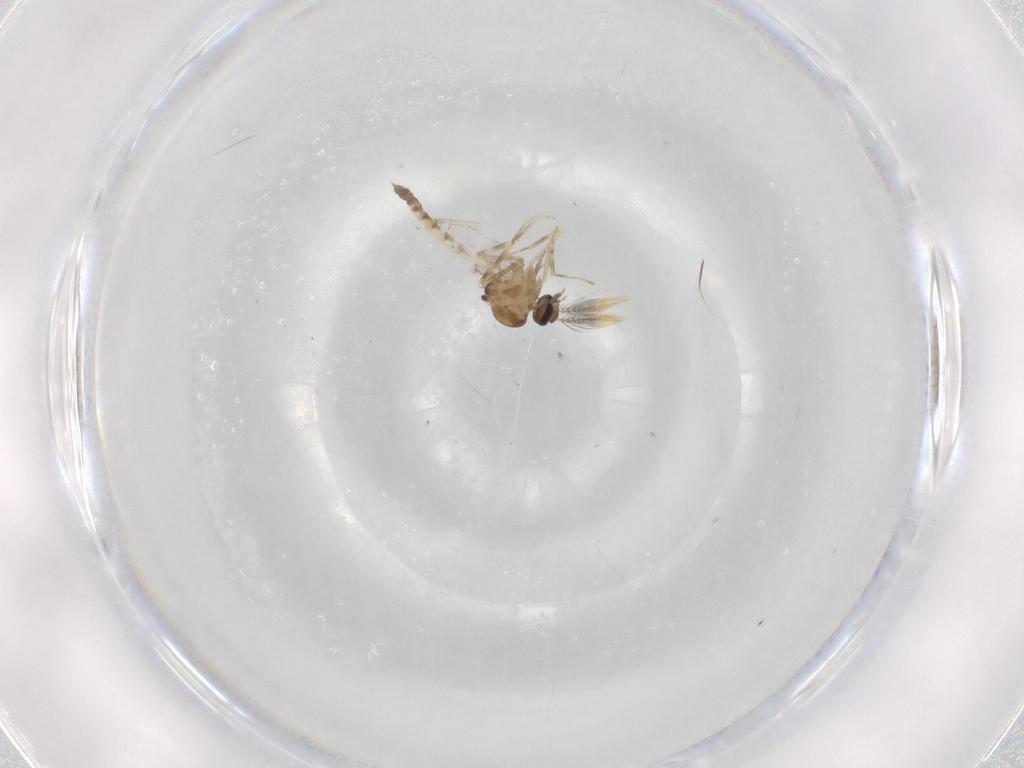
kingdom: Animalia
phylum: Arthropoda
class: Insecta
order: Diptera
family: Ceratopogonidae
